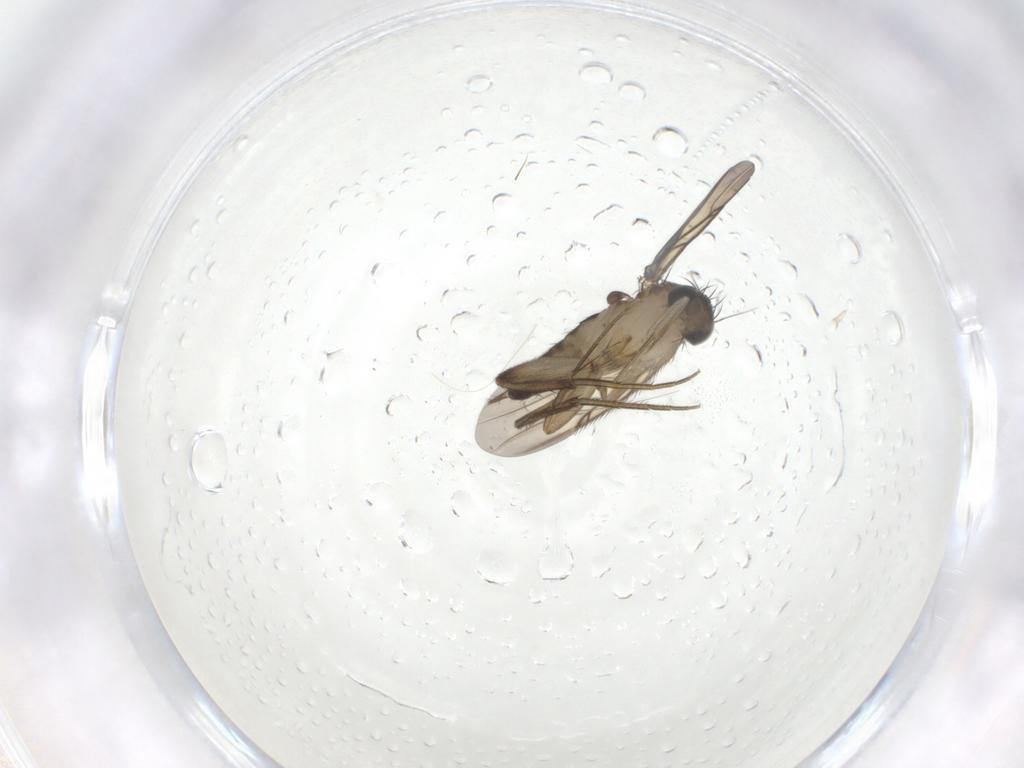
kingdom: Animalia
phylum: Arthropoda
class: Insecta
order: Diptera
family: Phoridae
